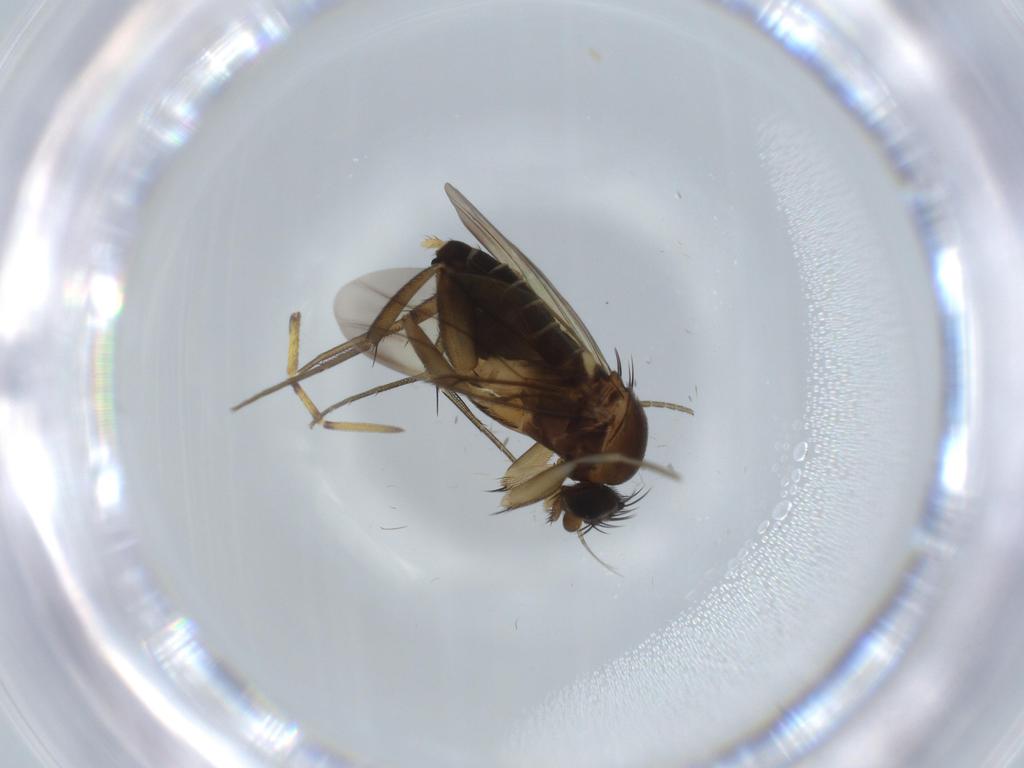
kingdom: Animalia
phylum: Arthropoda
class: Insecta
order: Diptera
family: Phoridae
